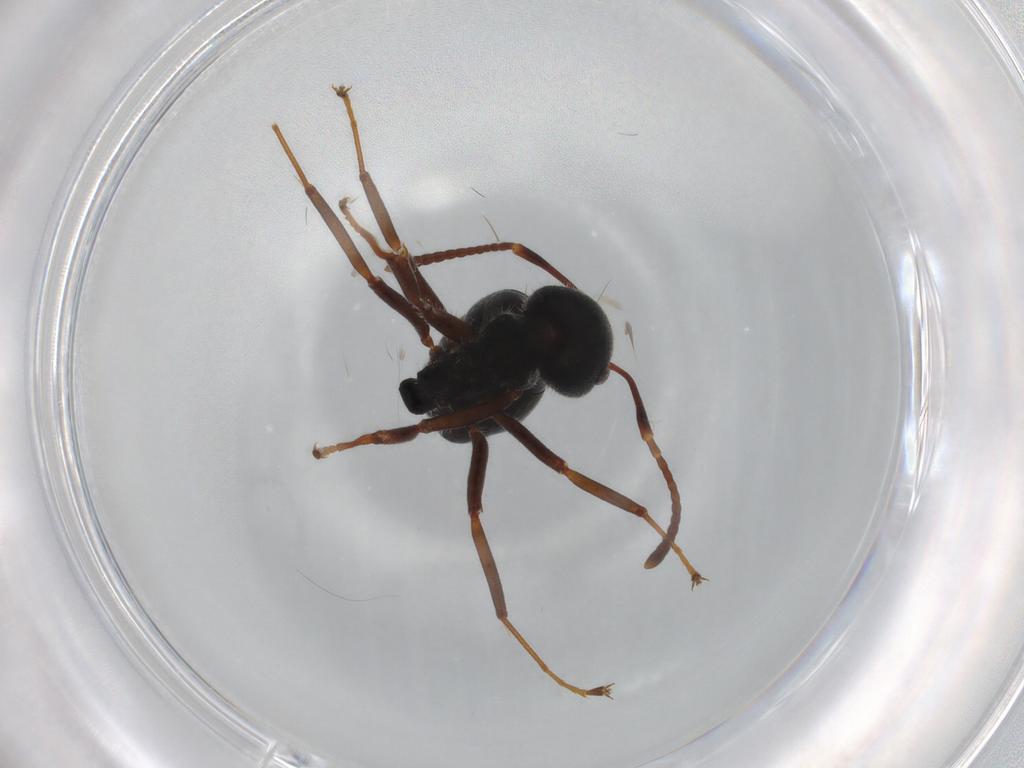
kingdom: Animalia
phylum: Arthropoda
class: Insecta
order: Hymenoptera
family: Formicidae
